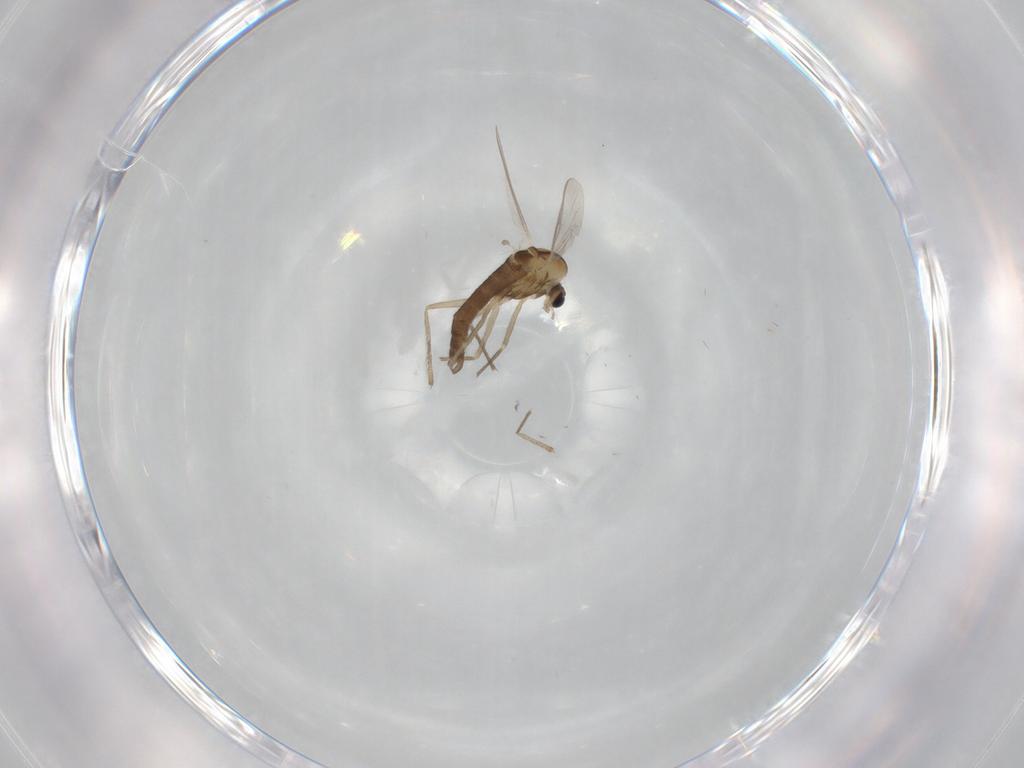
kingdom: Animalia
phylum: Arthropoda
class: Insecta
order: Diptera
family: Chironomidae
